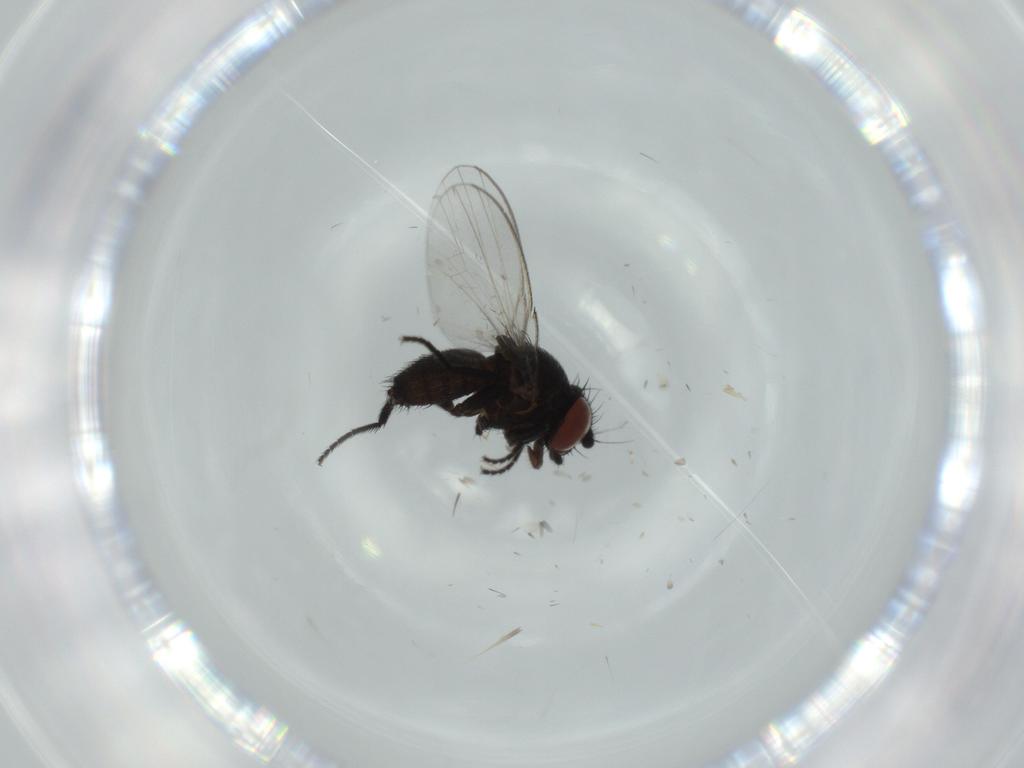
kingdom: Animalia
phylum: Arthropoda
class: Insecta
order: Diptera
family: Milichiidae
